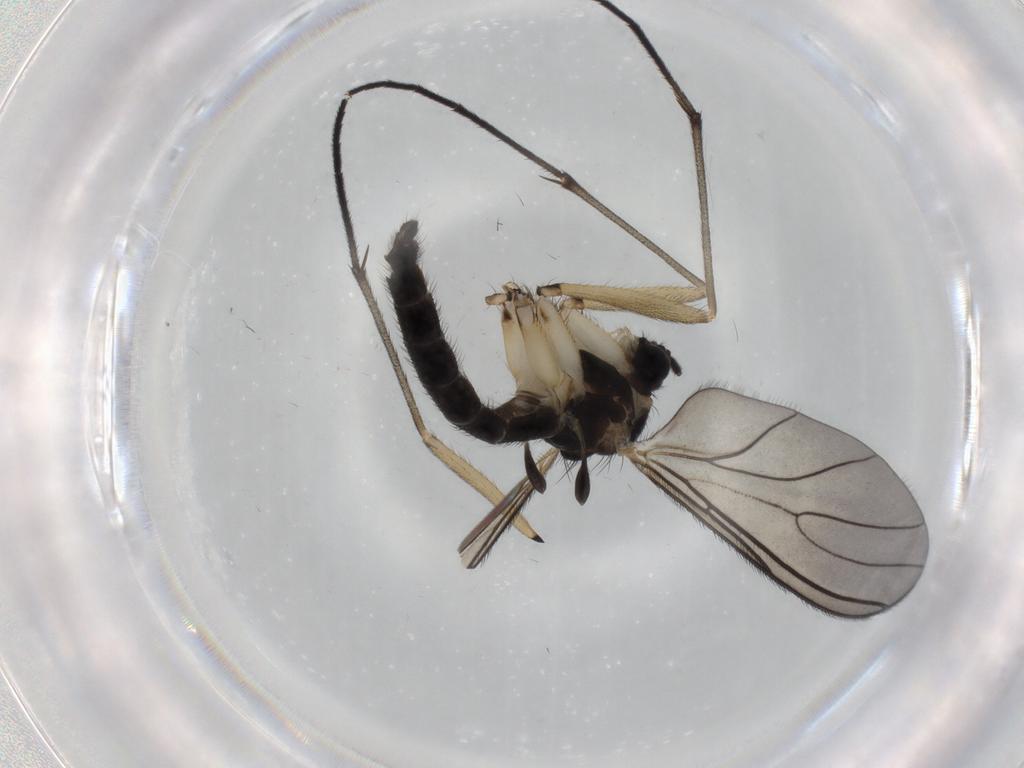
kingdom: Animalia
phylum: Arthropoda
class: Insecta
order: Diptera
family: Sciaridae
